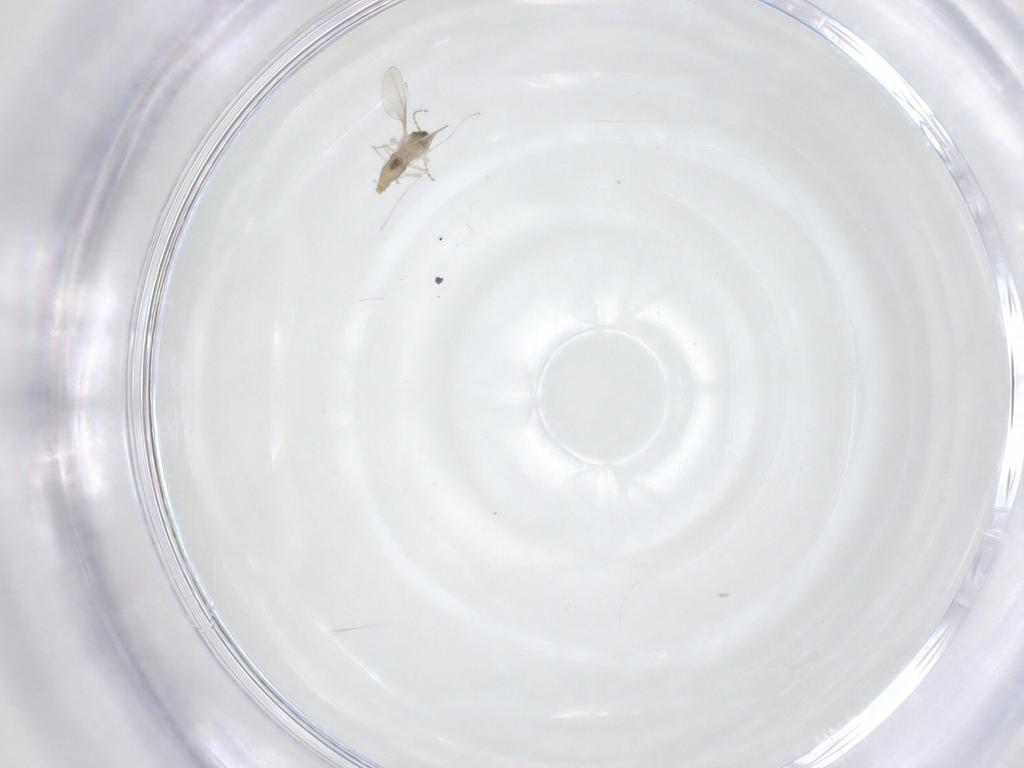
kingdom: Animalia
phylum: Arthropoda
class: Insecta
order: Diptera
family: Cecidomyiidae
